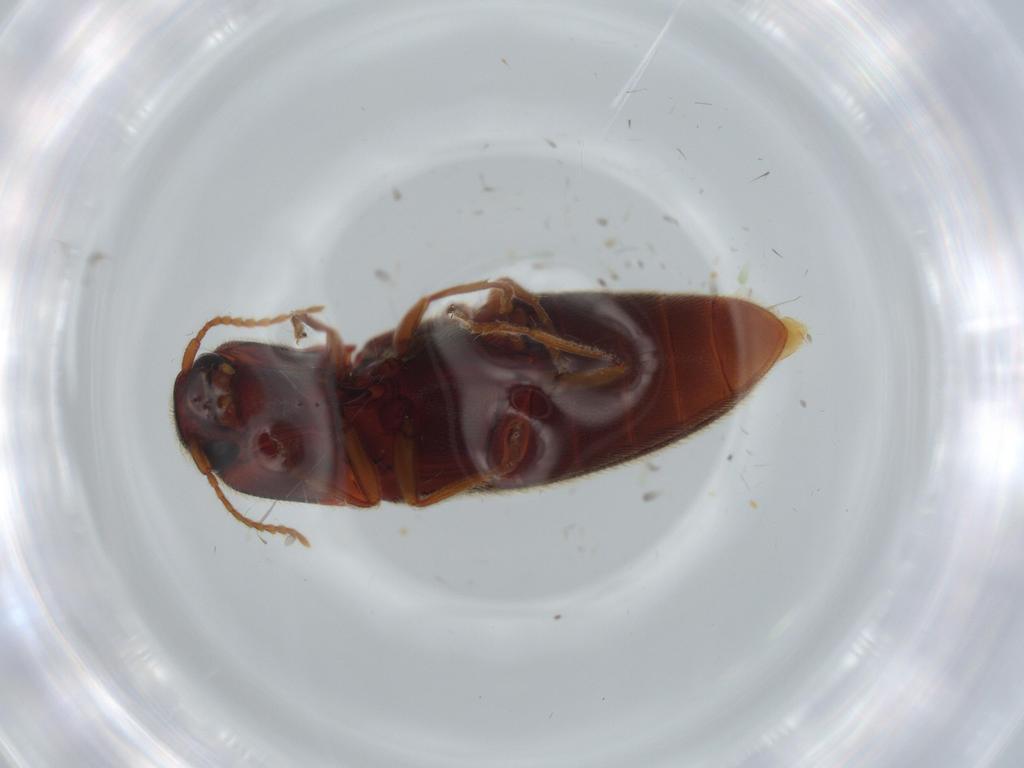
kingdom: Animalia
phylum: Arthropoda
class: Insecta
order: Coleoptera
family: Elateridae
